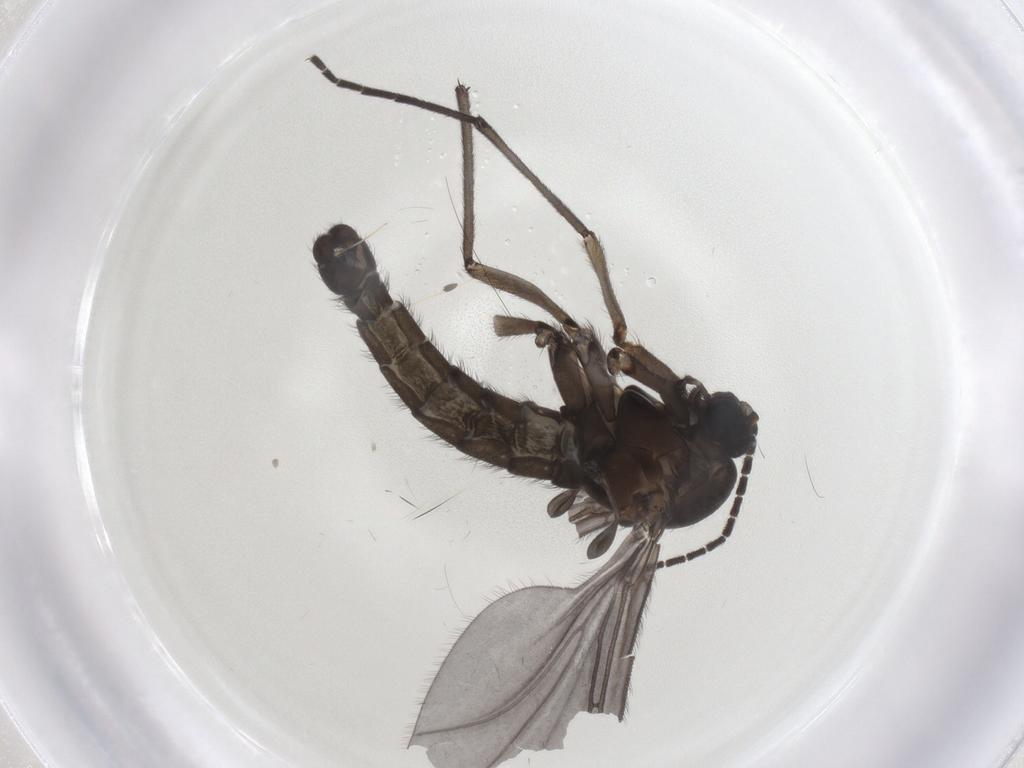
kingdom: Animalia
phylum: Arthropoda
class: Insecta
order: Diptera
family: Sciaridae
